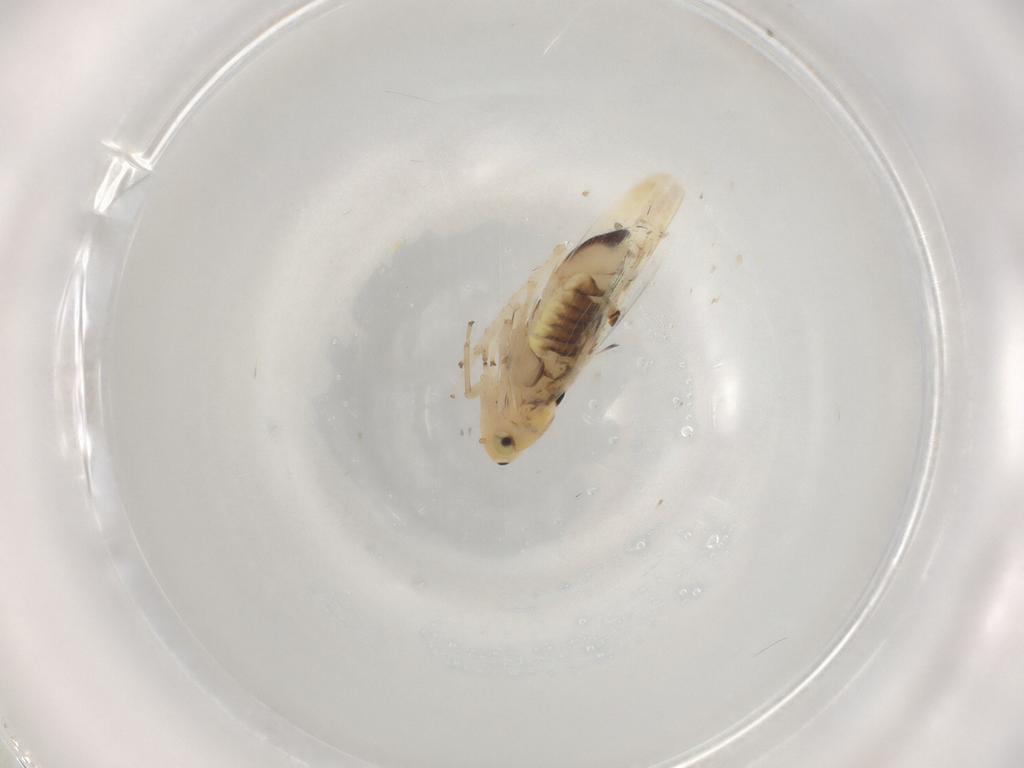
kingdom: Animalia
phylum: Arthropoda
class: Insecta
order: Hemiptera
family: Cicadellidae
